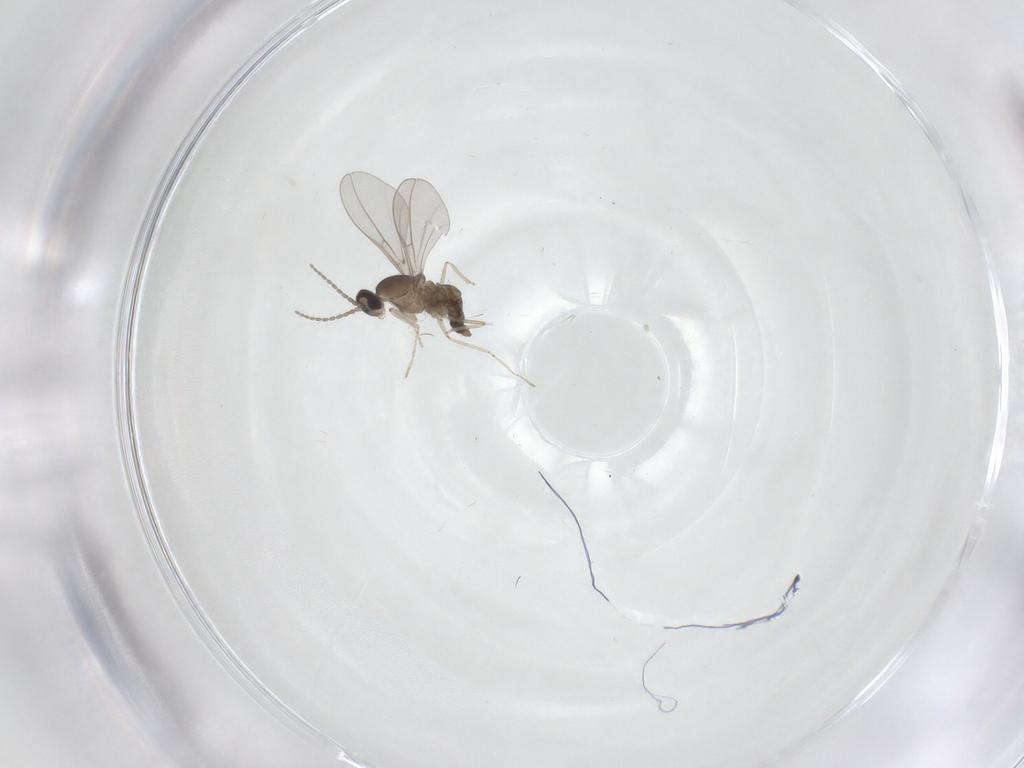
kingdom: Animalia
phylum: Arthropoda
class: Insecta
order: Diptera
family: Cecidomyiidae
